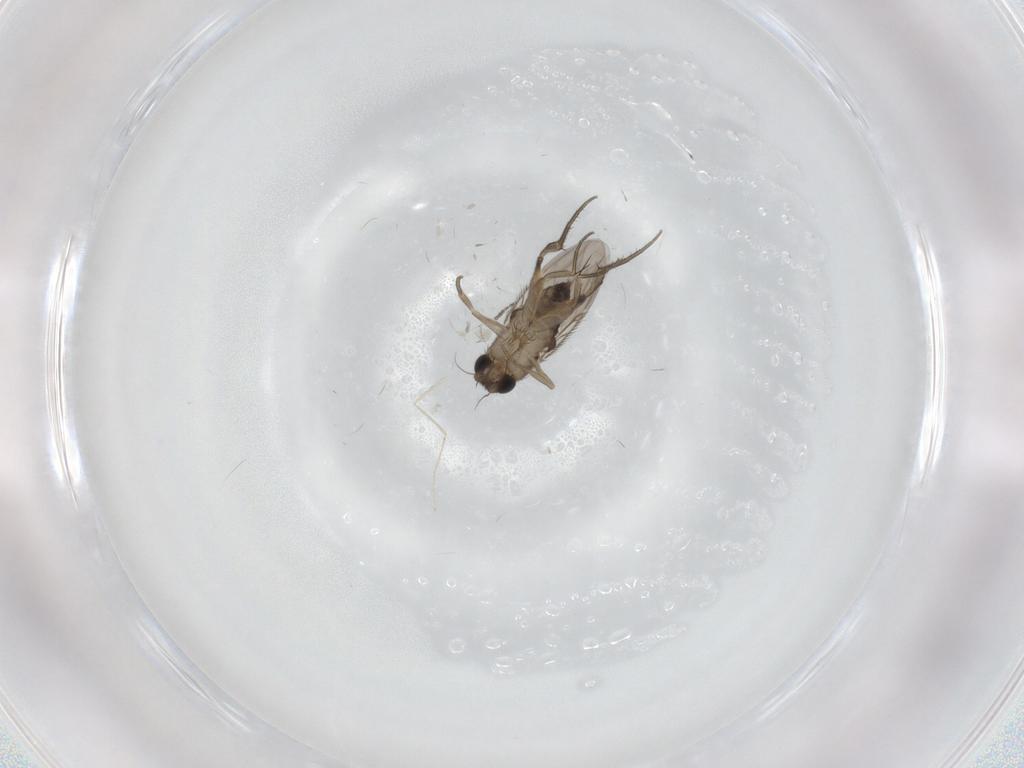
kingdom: Animalia
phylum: Arthropoda
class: Insecta
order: Diptera
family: Phoridae
